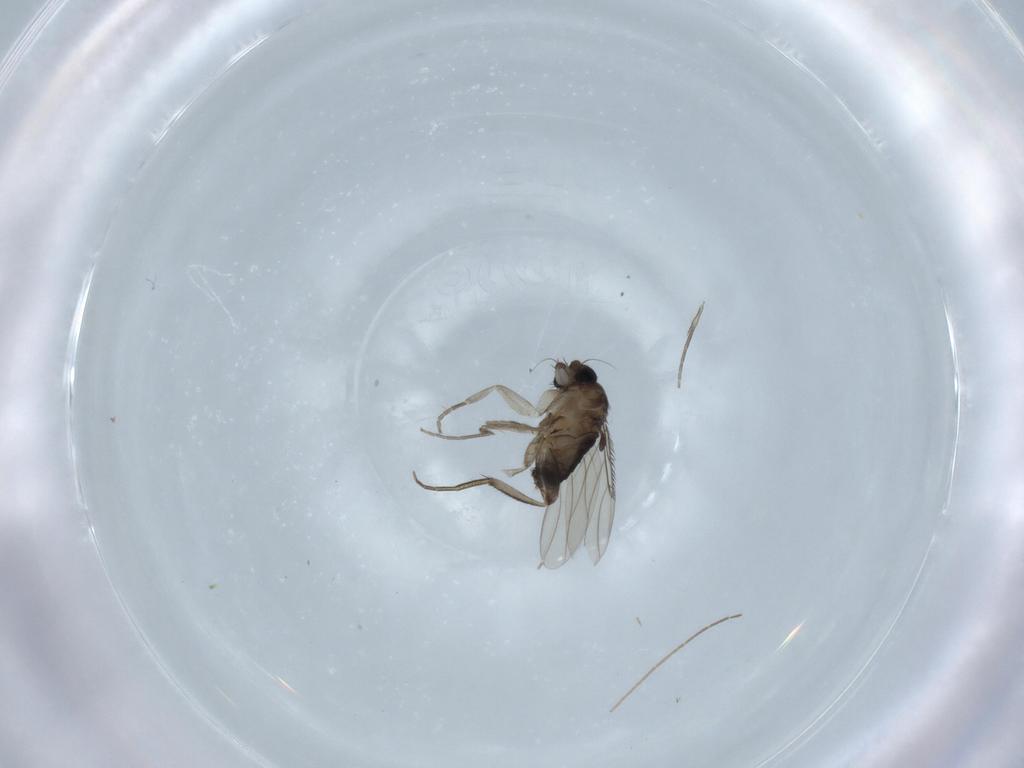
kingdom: Animalia
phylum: Arthropoda
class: Insecta
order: Diptera
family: Phoridae
